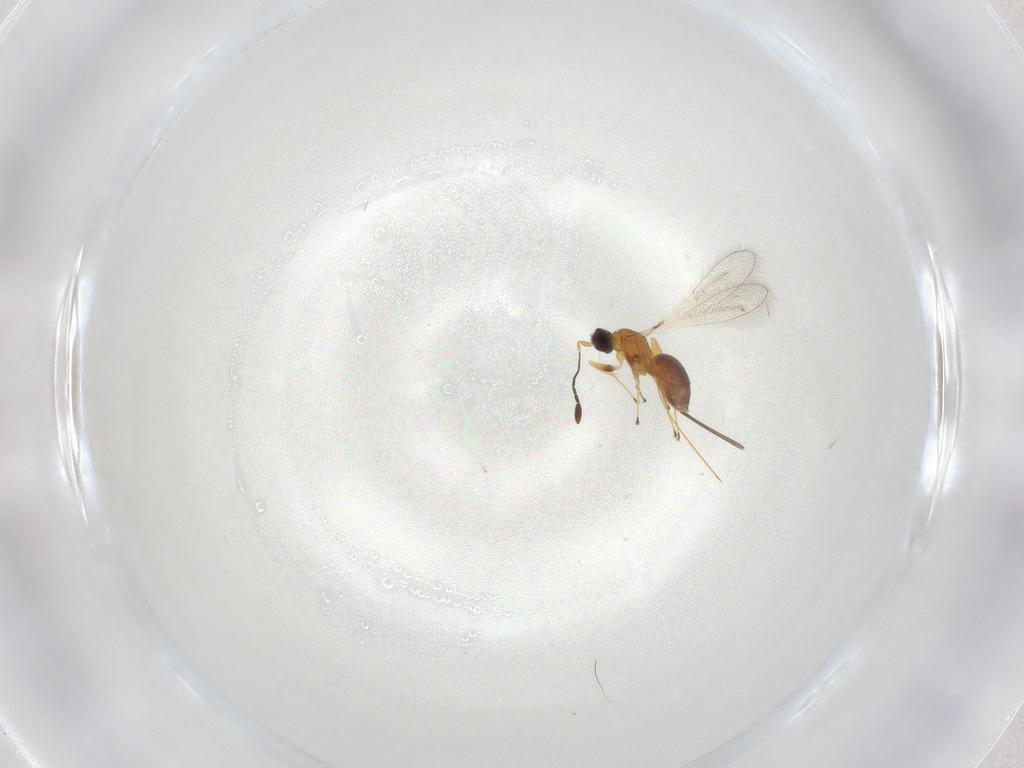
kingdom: Animalia
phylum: Arthropoda
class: Insecta
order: Hymenoptera
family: Mymaridae
